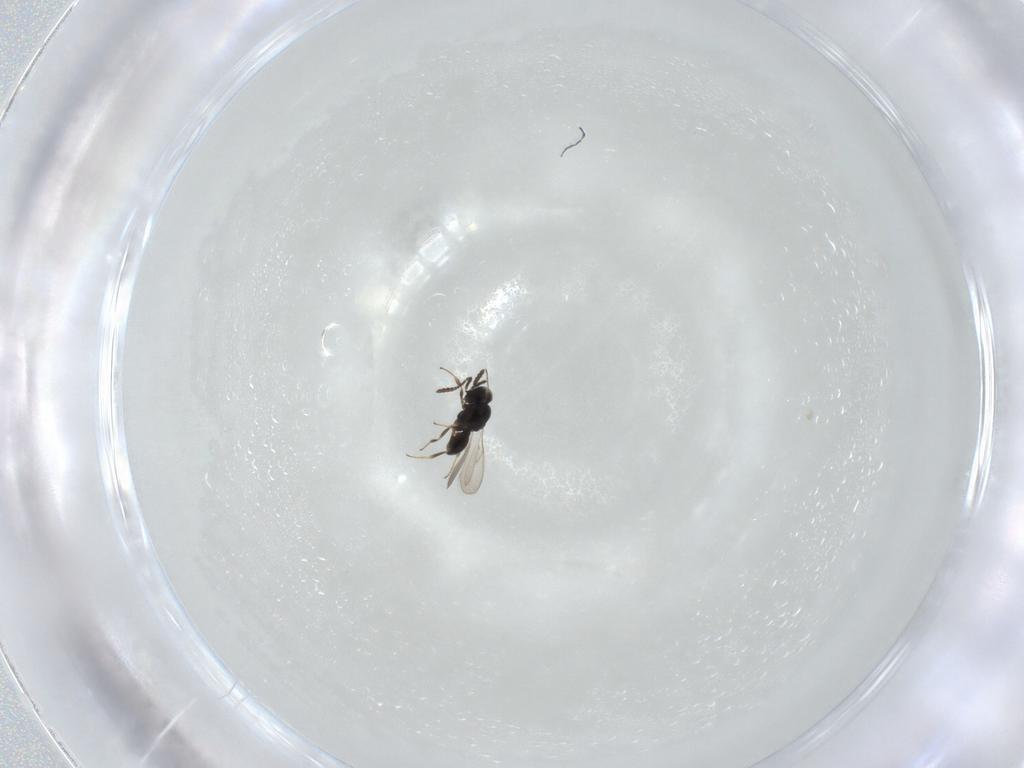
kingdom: Animalia
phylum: Arthropoda
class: Insecta
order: Hymenoptera
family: Scelionidae
